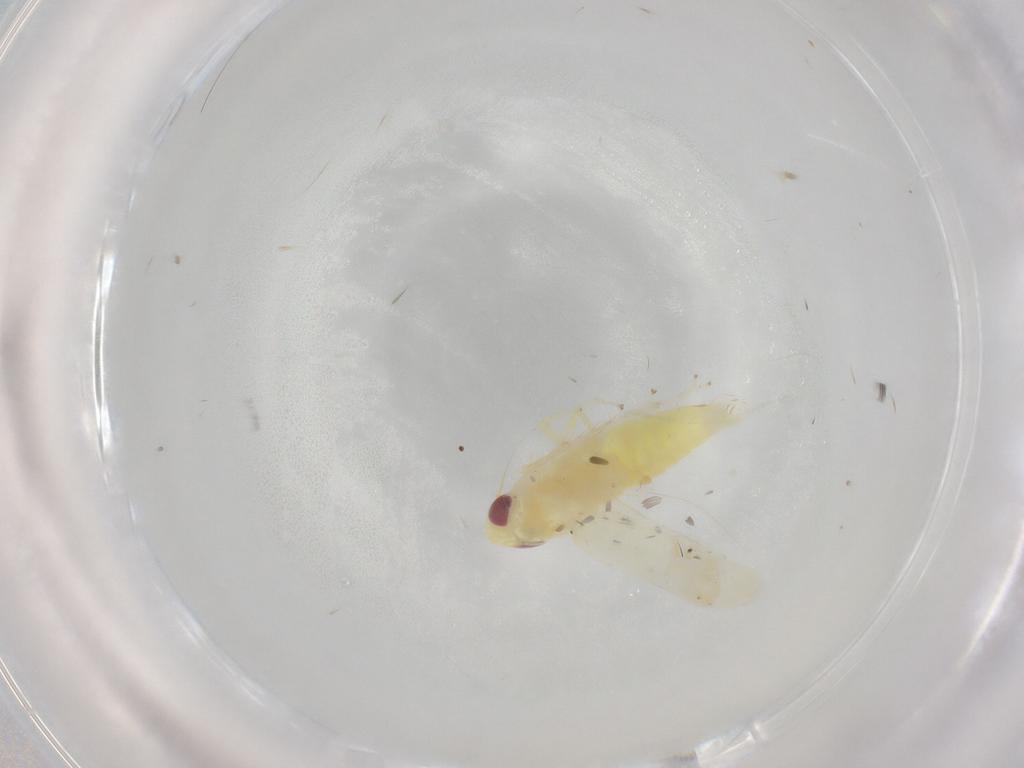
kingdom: Animalia
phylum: Arthropoda
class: Insecta
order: Hemiptera
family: Cicadellidae
